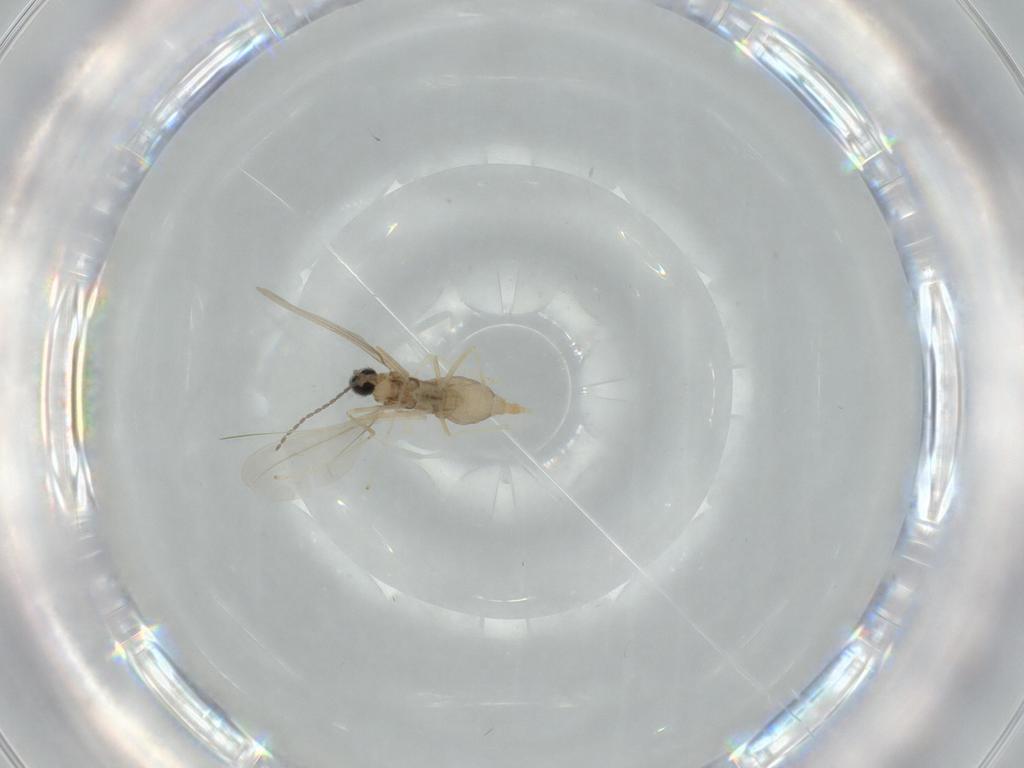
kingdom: Animalia
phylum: Arthropoda
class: Insecta
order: Diptera
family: Cecidomyiidae
